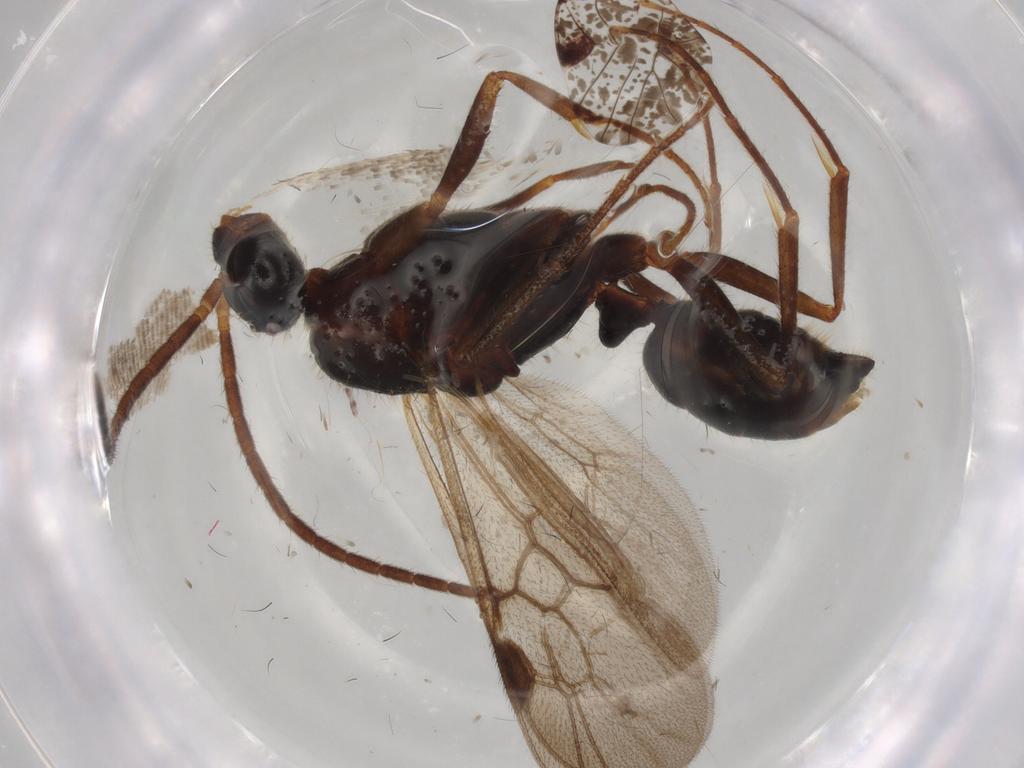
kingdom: Animalia
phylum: Arthropoda
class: Insecta
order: Hymenoptera
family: Formicidae
